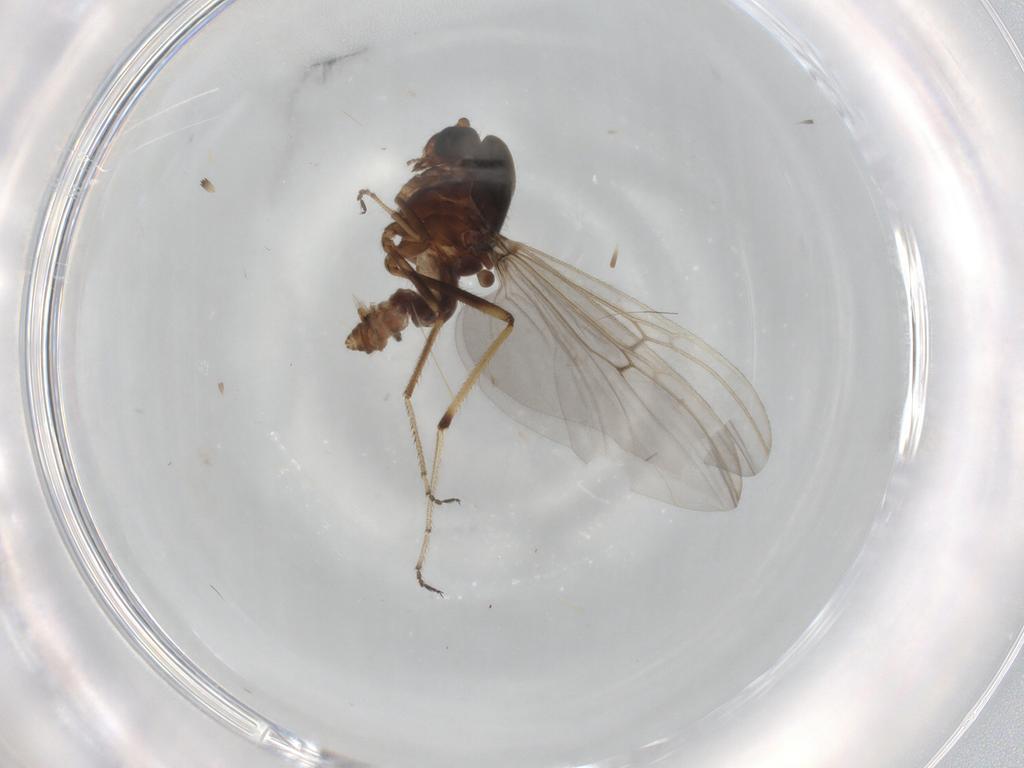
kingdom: Animalia
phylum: Arthropoda
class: Insecta
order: Diptera
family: Ceratopogonidae
